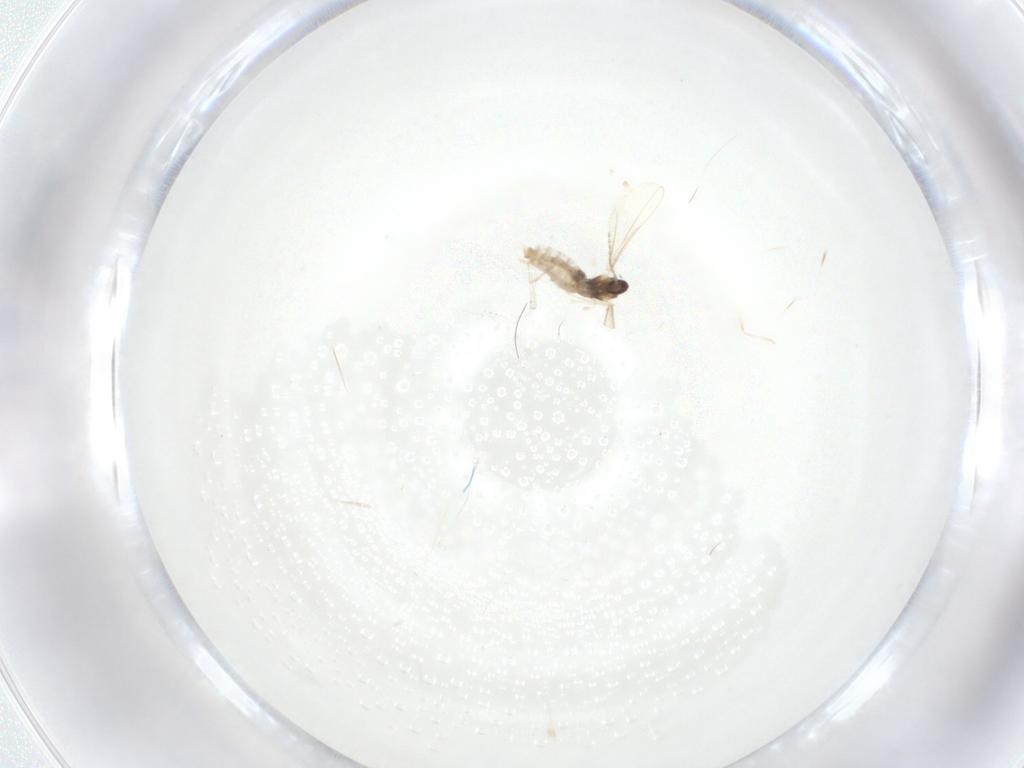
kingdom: Animalia
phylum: Arthropoda
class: Insecta
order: Diptera
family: Cecidomyiidae
